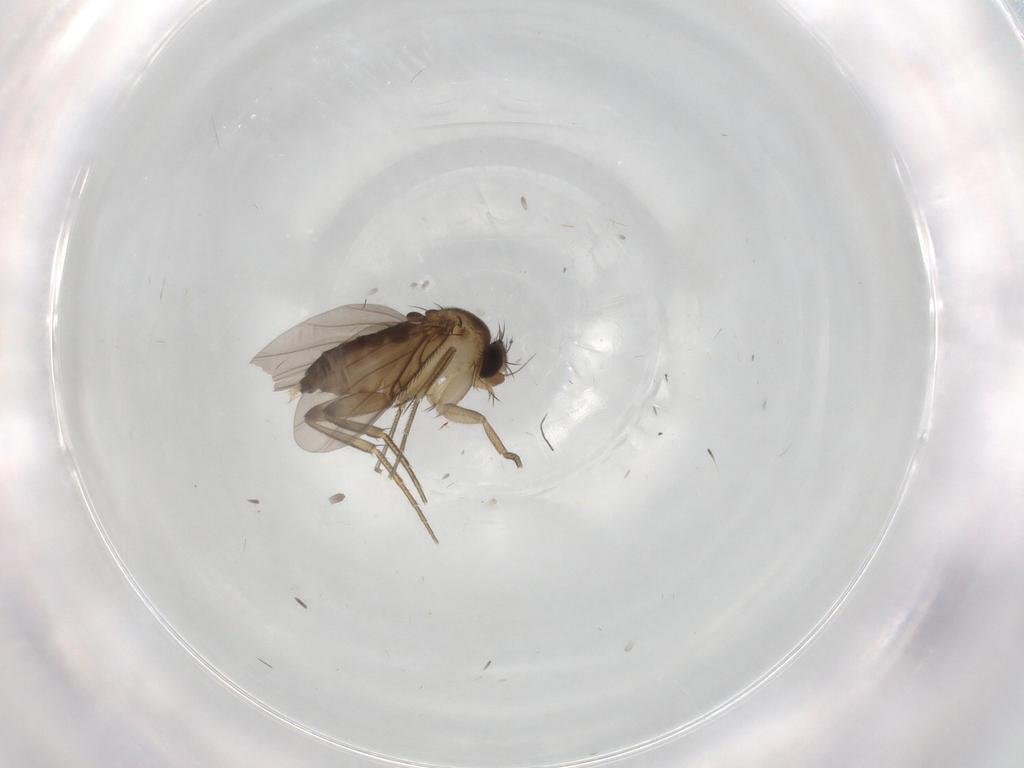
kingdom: Animalia
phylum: Arthropoda
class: Insecta
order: Diptera
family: Phoridae
